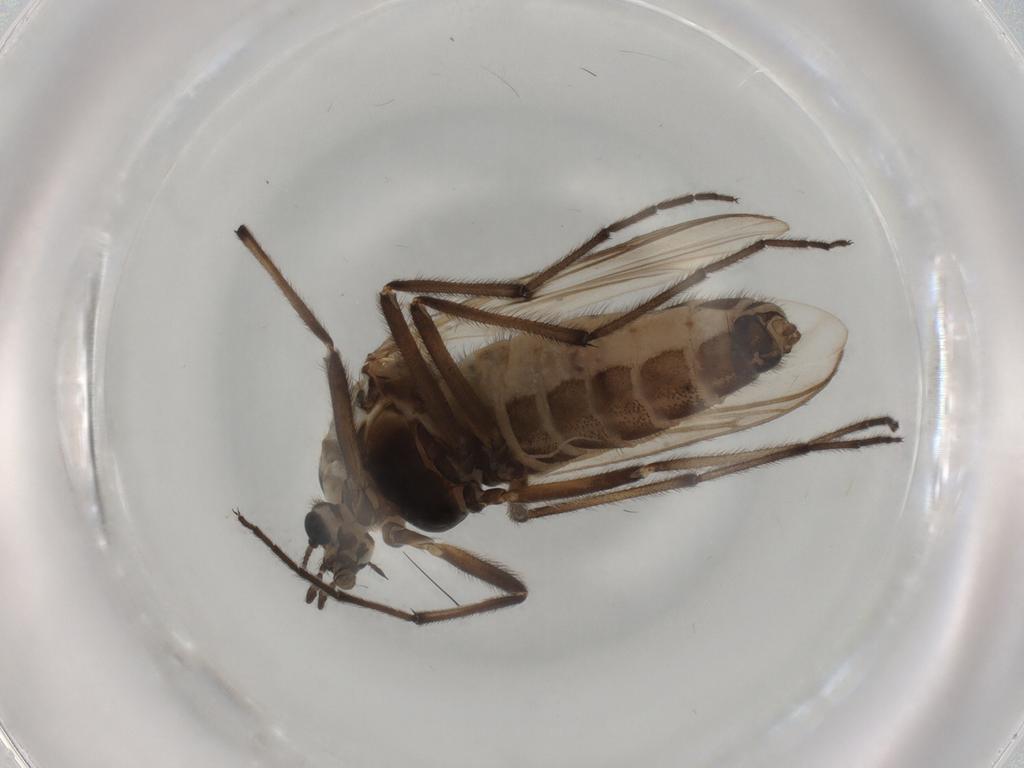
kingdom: Animalia
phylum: Arthropoda
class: Insecta
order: Diptera
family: Chironomidae
